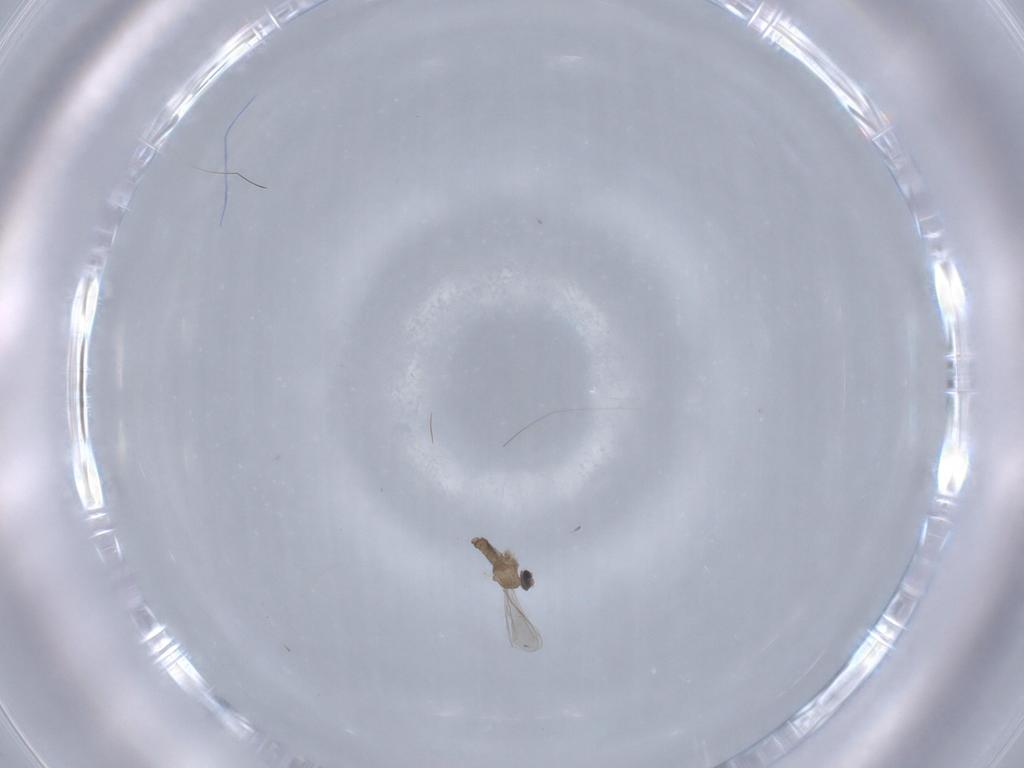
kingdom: Animalia
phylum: Arthropoda
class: Insecta
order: Diptera
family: Cecidomyiidae
